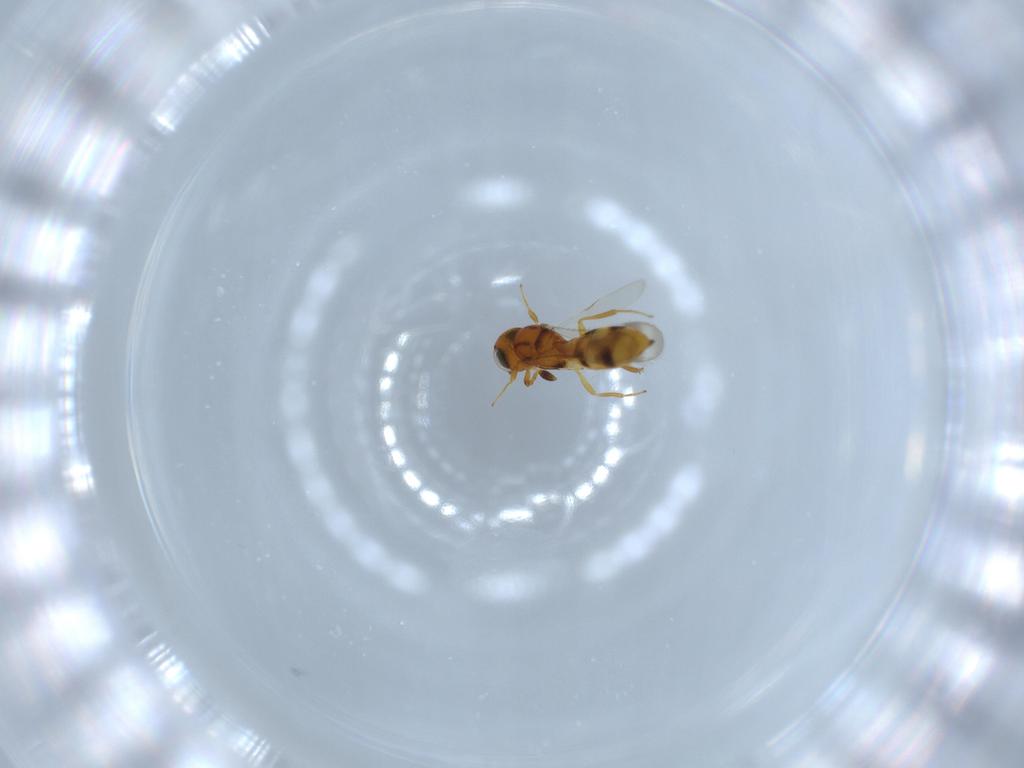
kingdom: Animalia
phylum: Arthropoda
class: Insecta
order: Hymenoptera
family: Scelionidae
